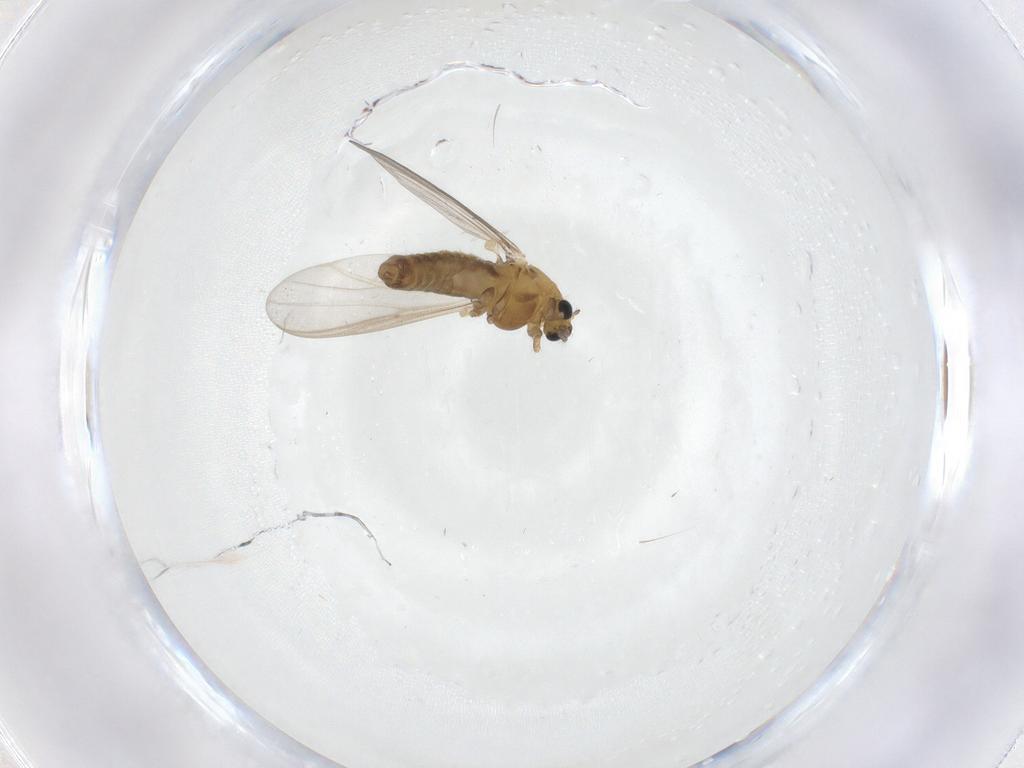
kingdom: Animalia
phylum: Arthropoda
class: Insecta
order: Diptera
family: Chironomidae
